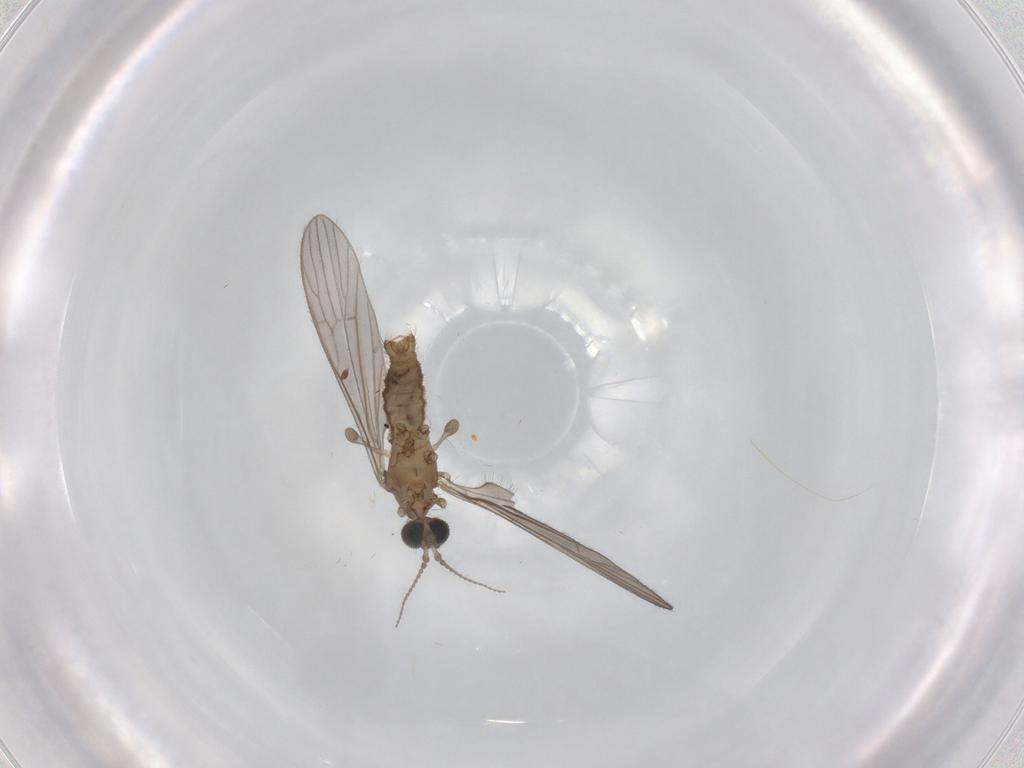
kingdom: Animalia
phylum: Arthropoda
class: Insecta
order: Diptera
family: Limoniidae
